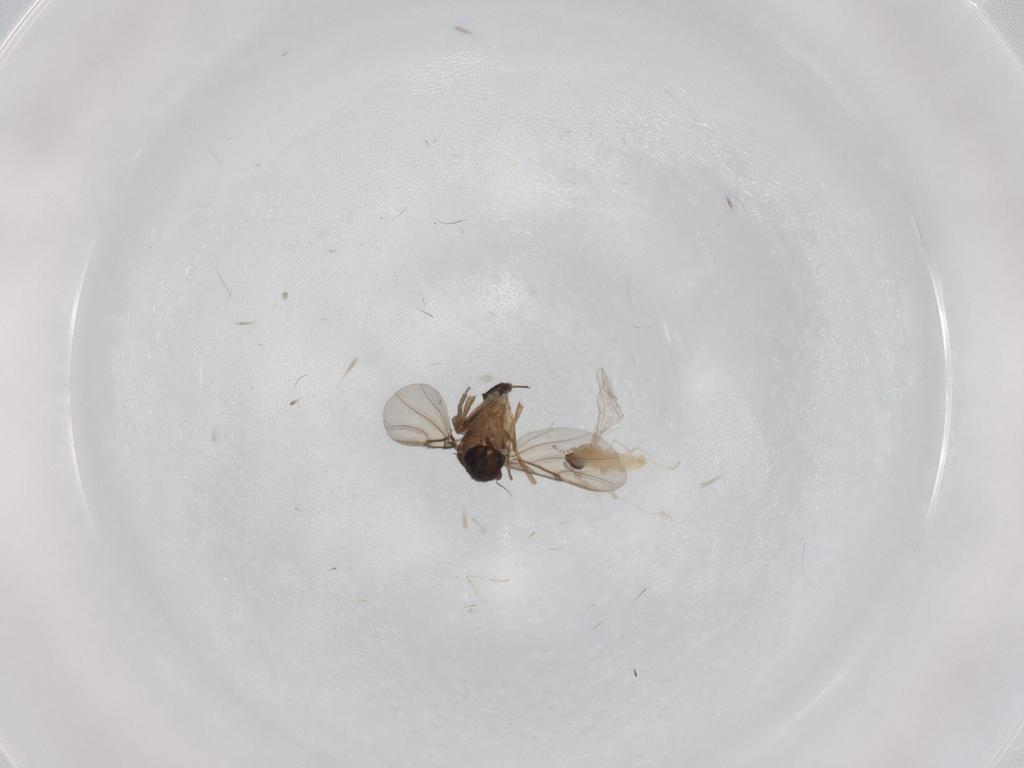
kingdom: Animalia
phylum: Arthropoda
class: Insecta
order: Diptera
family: Phoridae
